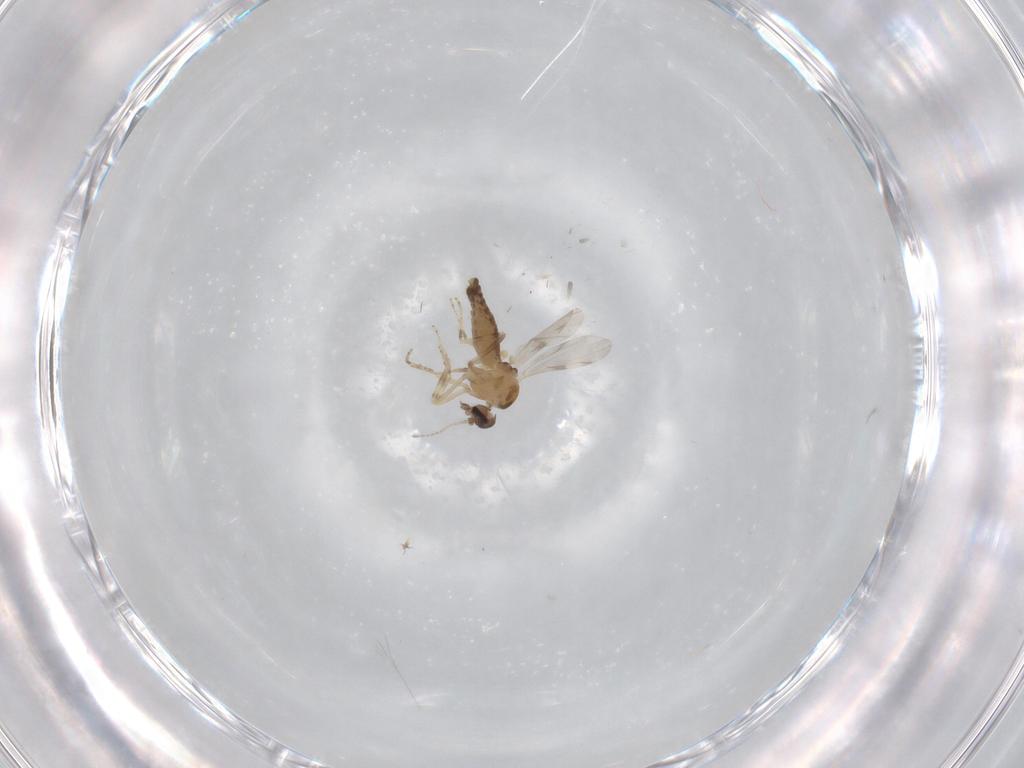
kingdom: Animalia
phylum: Arthropoda
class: Insecta
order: Diptera
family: Ceratopogonidae
